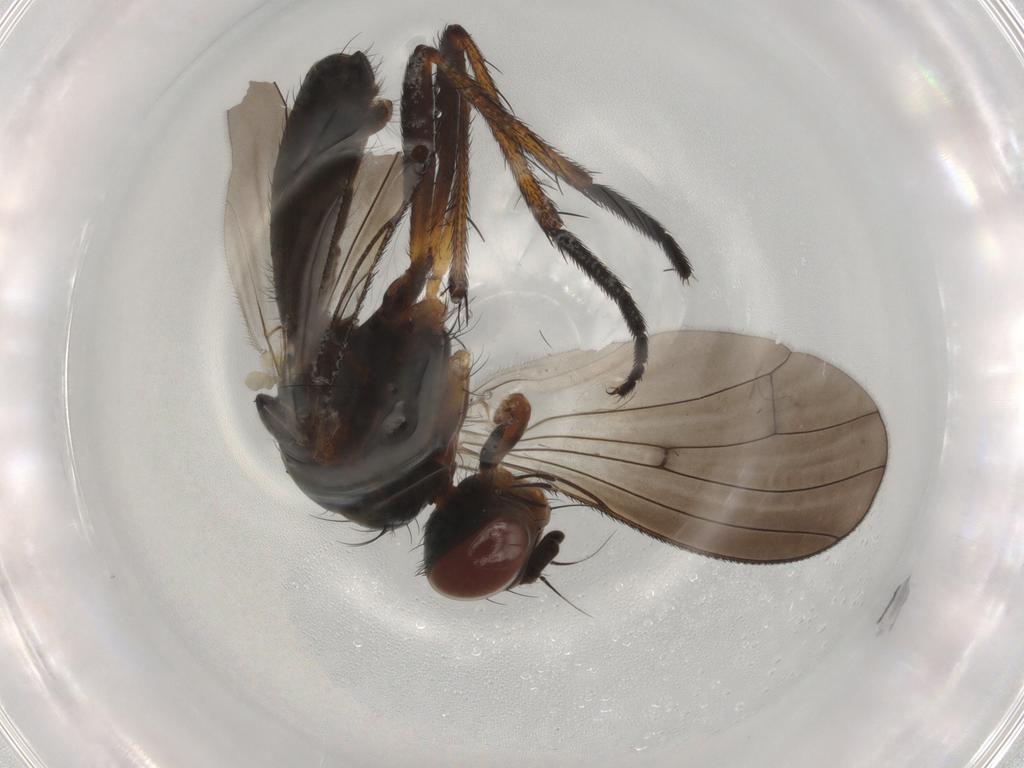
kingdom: Animalia
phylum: Arthropoda
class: Insecta
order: Diptera
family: Anthomyiidae
